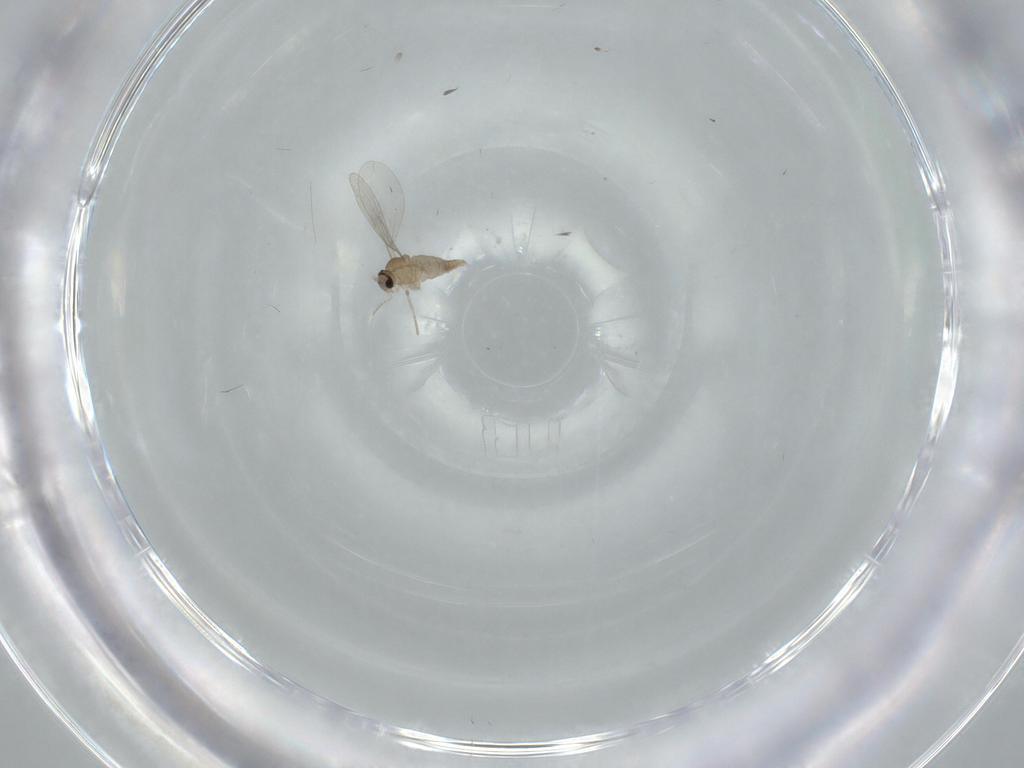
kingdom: Animalia
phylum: Arthropoda
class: Insecta
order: Diptera
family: Cecidomyiidae
